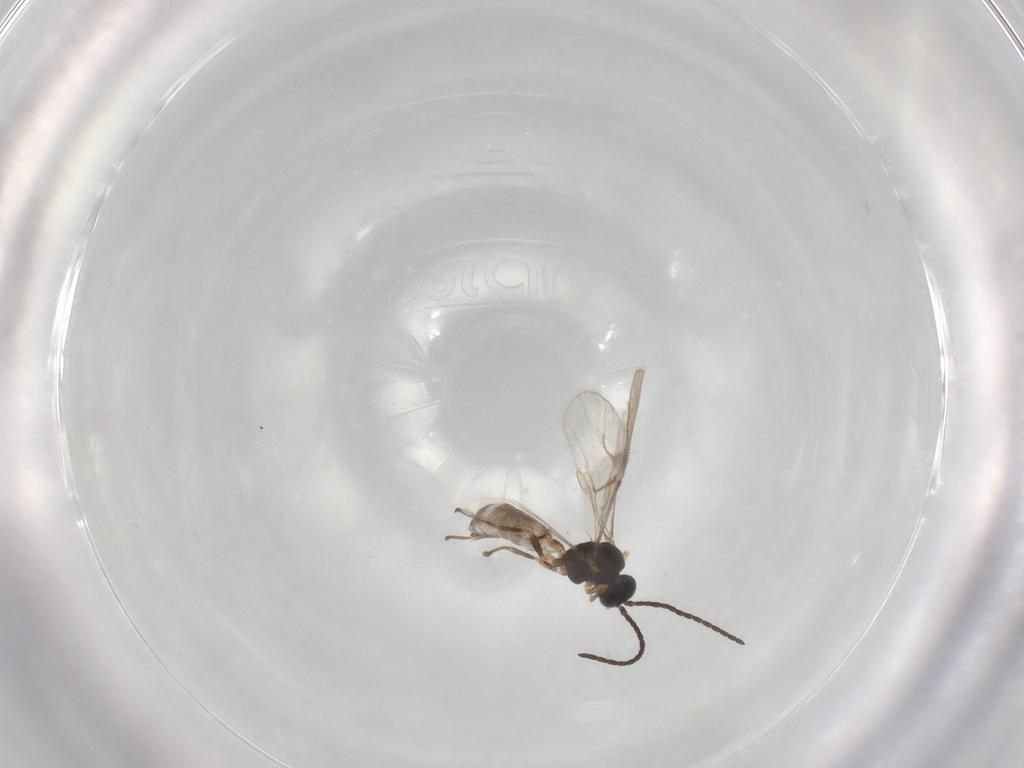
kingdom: Animalia
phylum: Arthropoda
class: Insecta
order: Hymenoptera
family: Braconidae
